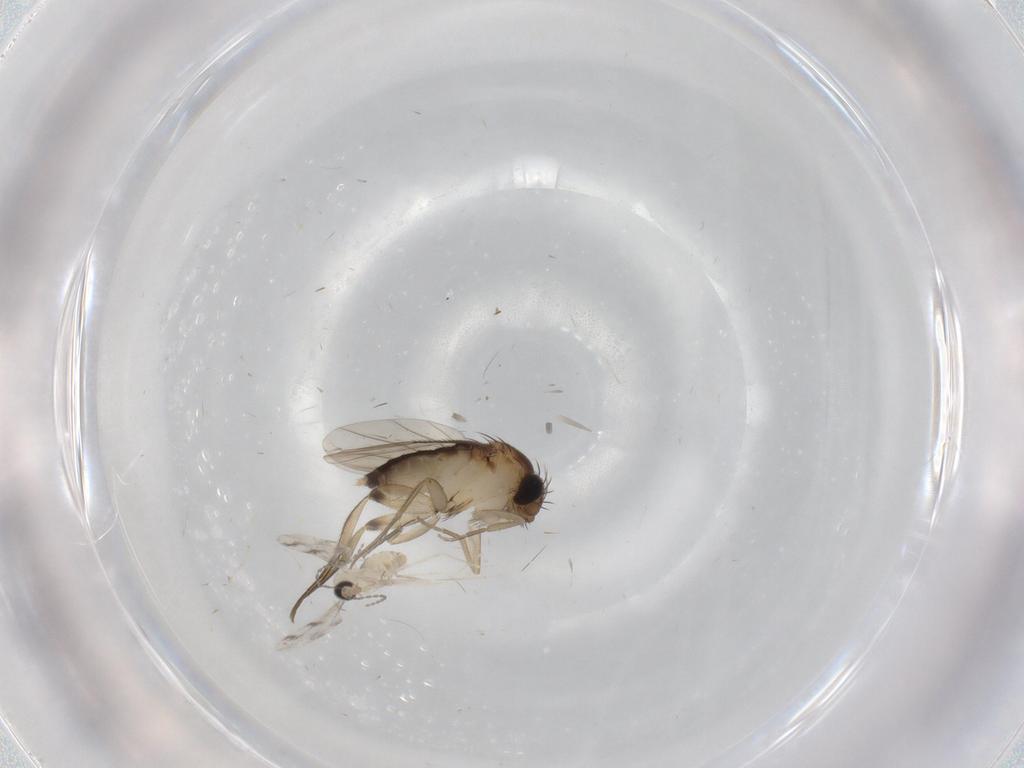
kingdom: Animalia
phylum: Arthropoda
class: Insecta
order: Diptera
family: Phoridae
